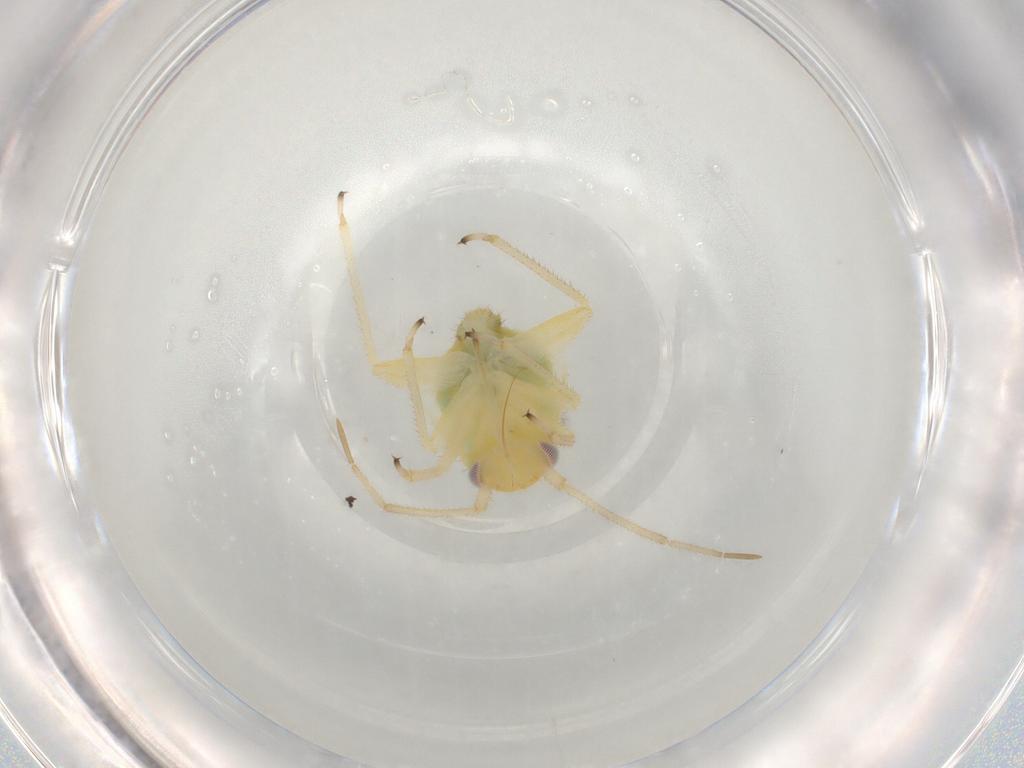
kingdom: Animalia
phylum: Arthropoda
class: Insecta
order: Hemiptera
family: Miridae
